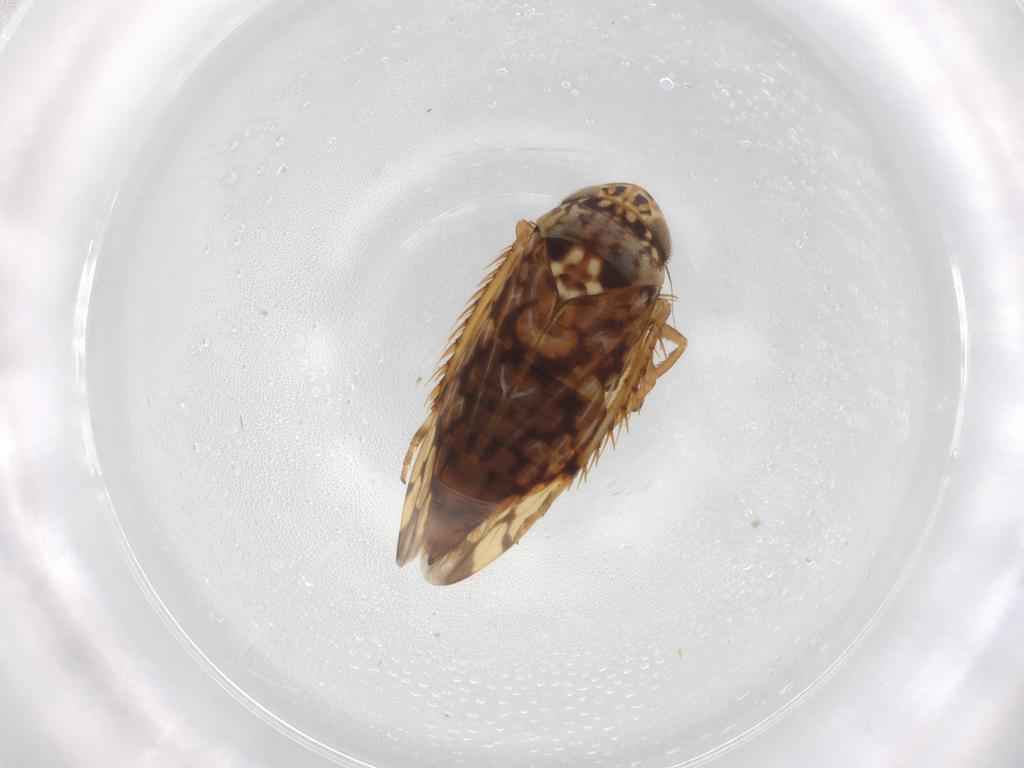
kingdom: Animalia
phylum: Arthropoda
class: Insecta
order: Hemiptera
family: Cicadellidae
